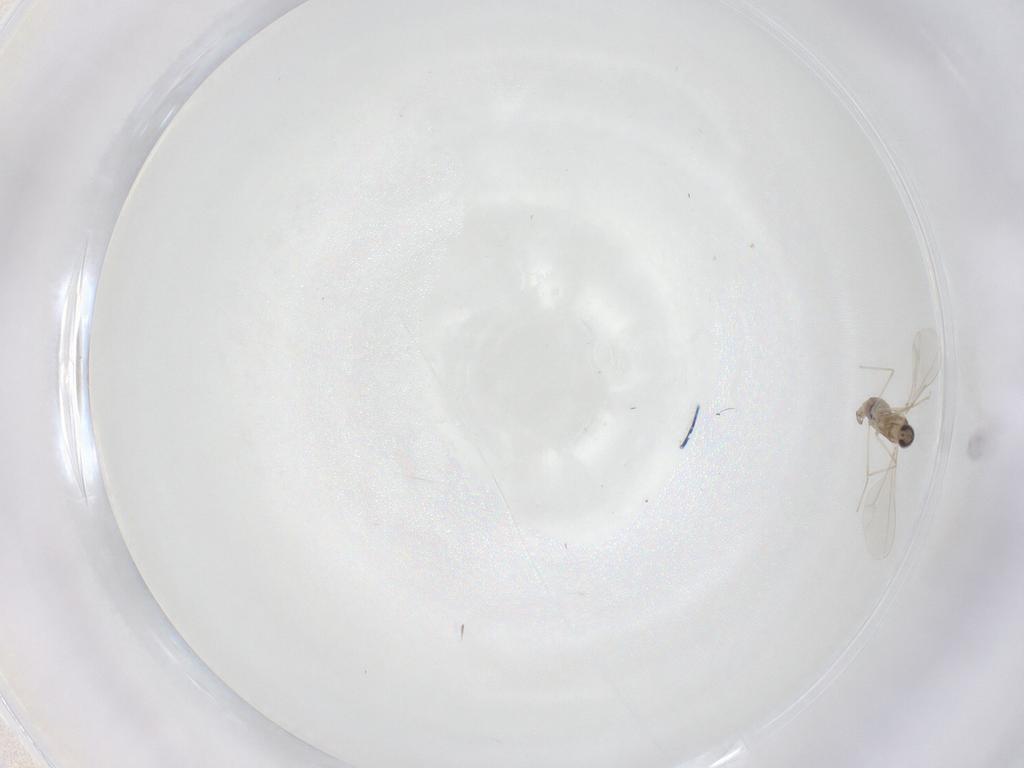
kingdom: Animalia
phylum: Arthropoda
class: Insecta
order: Diptera
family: Cecidomyiidae
